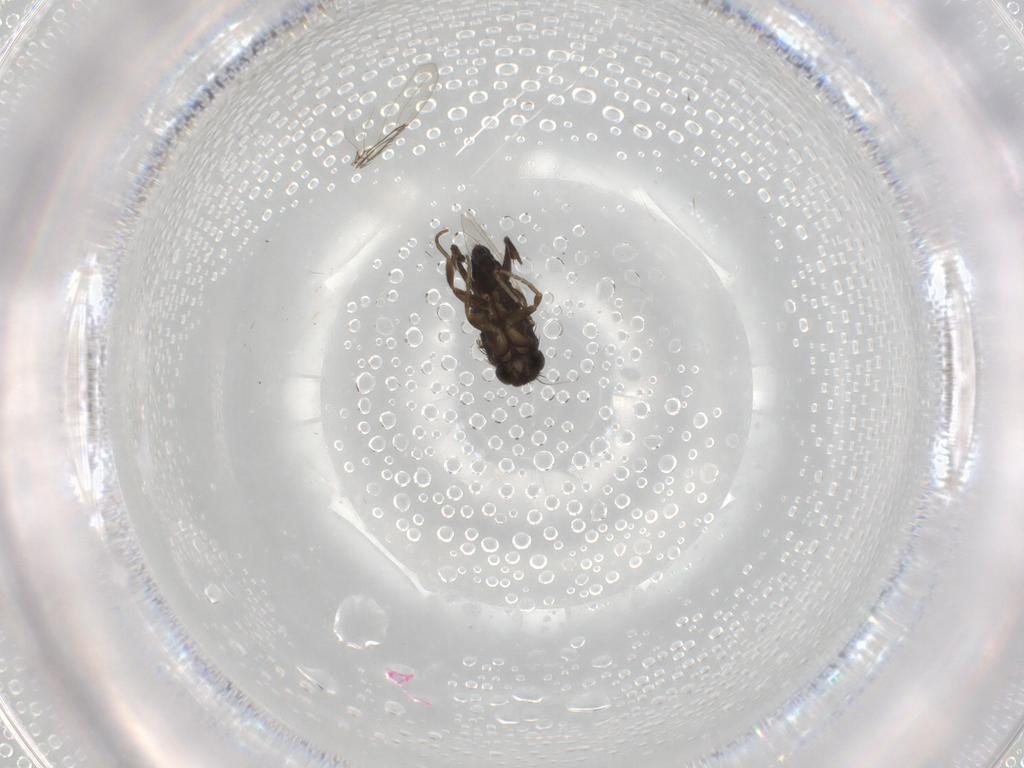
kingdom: Animalia
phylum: Arthropoda
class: Insecta
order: Diptera
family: Phoridae
